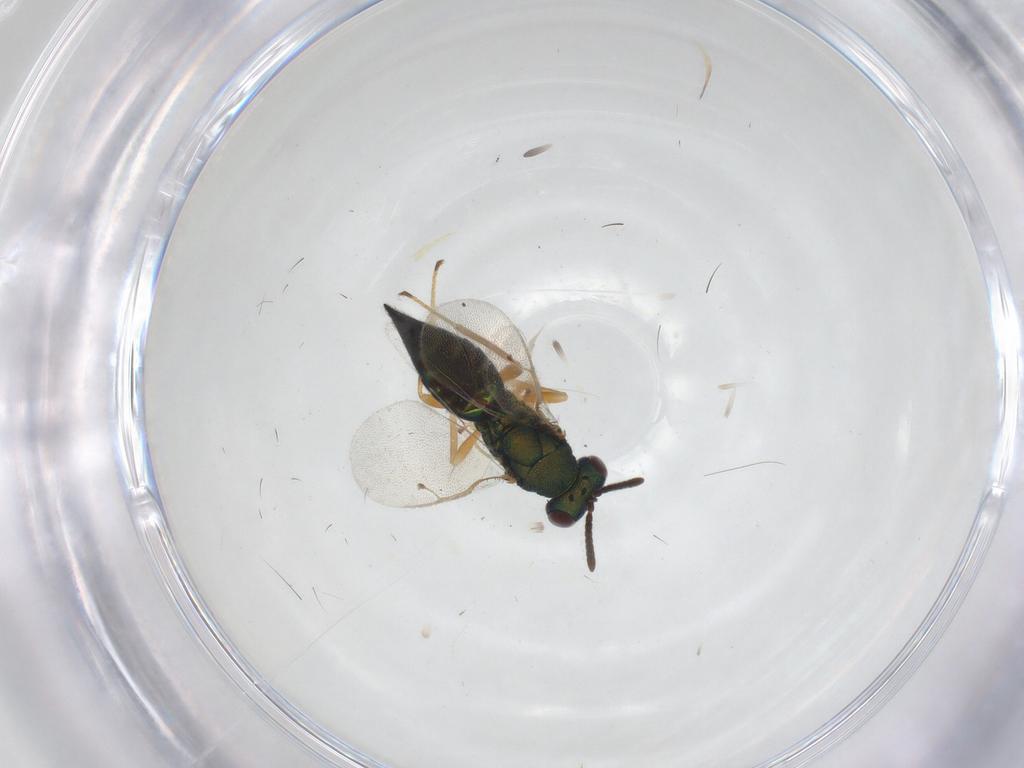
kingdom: Animalia
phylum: Arthropoda
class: Insecta
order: Hymenoptera
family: Pteromalidae
